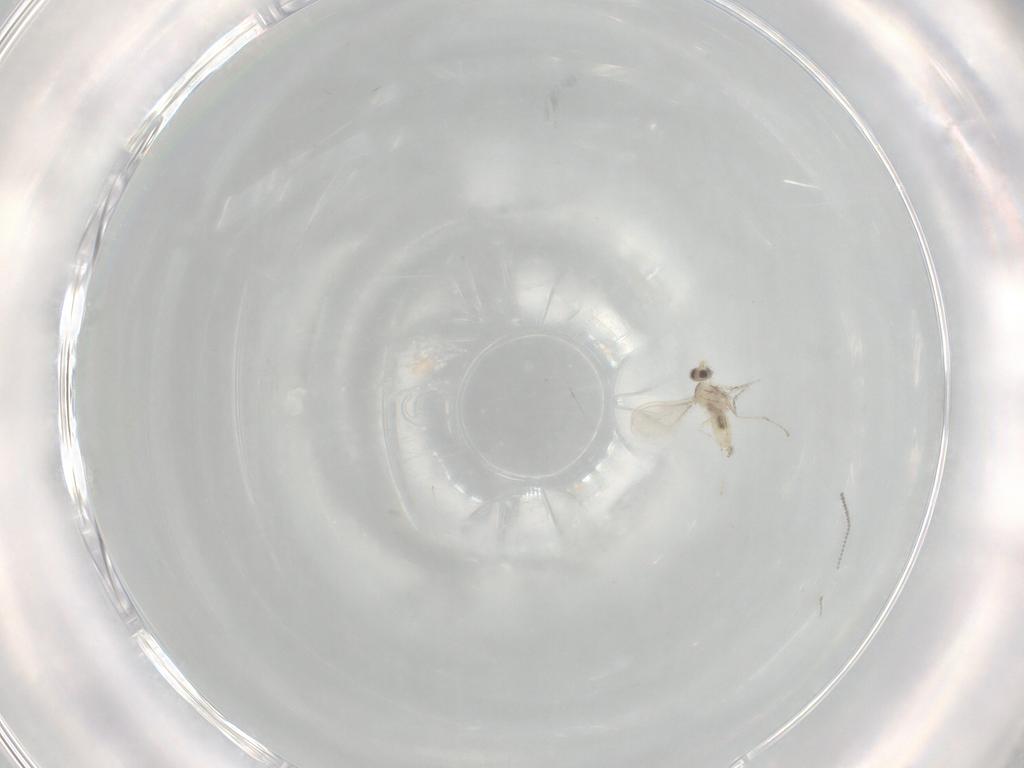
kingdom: Animalia
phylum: Arthropoda
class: Insecta
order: Diptera
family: Cecidomyiidae
